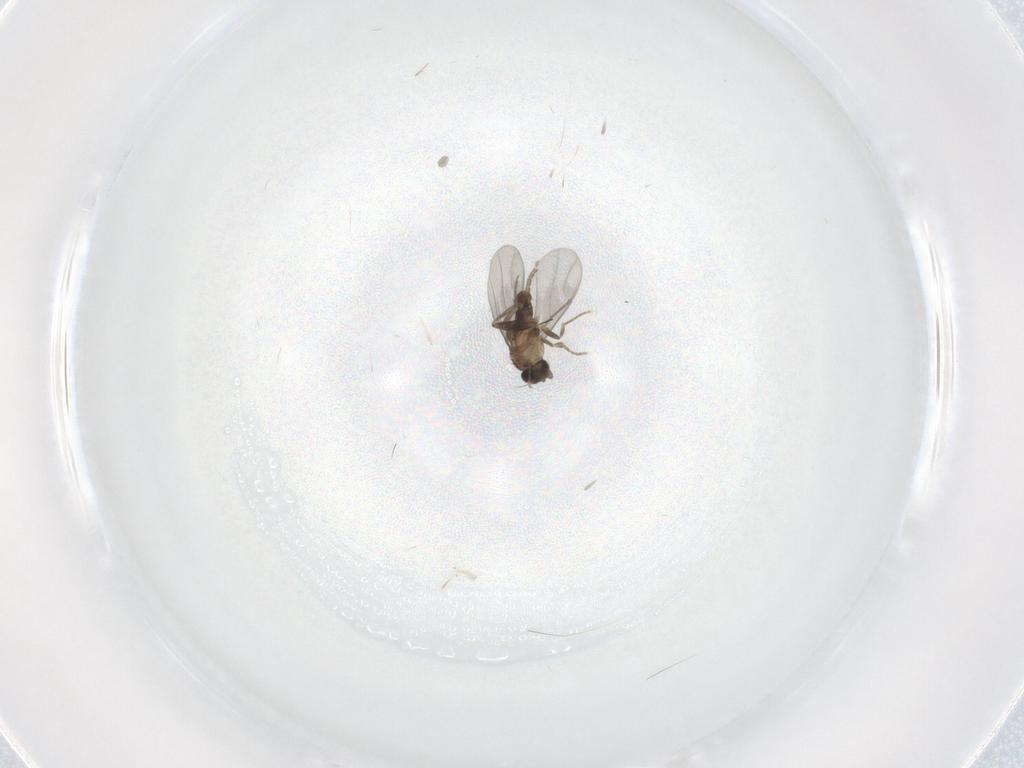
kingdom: Animalia
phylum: Arthropoda
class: Insecta
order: Diptera
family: Phoridae
